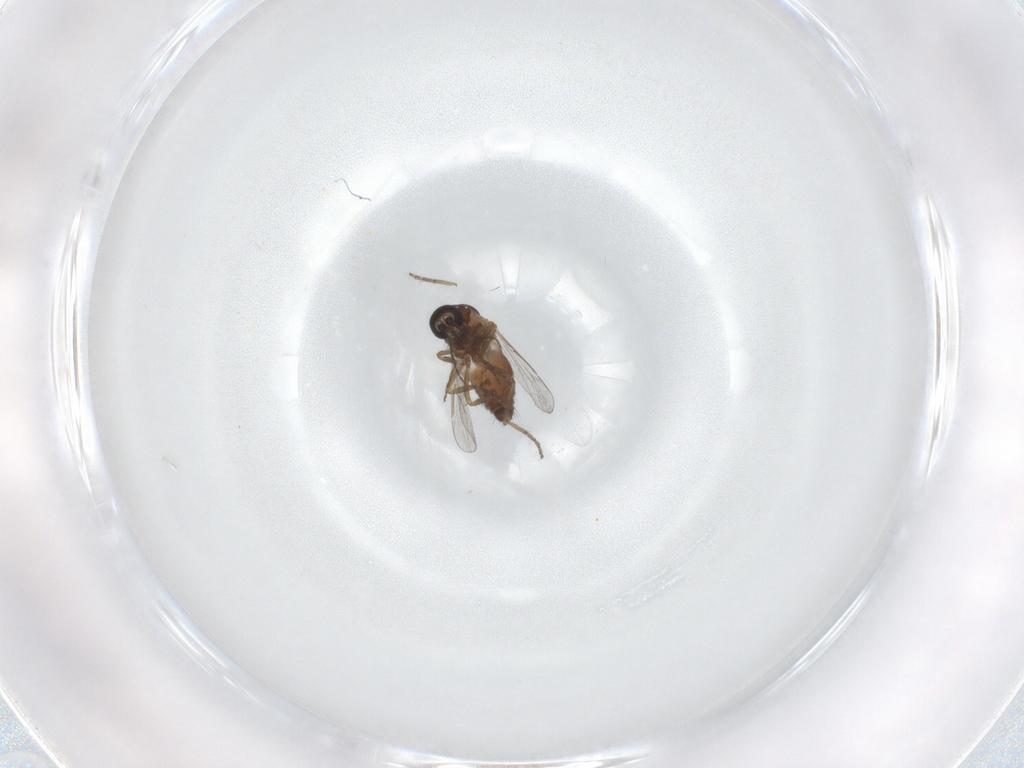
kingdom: Animalia
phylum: Arthropoda
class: Insecta
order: Diptera
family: Cecidomyiidae
